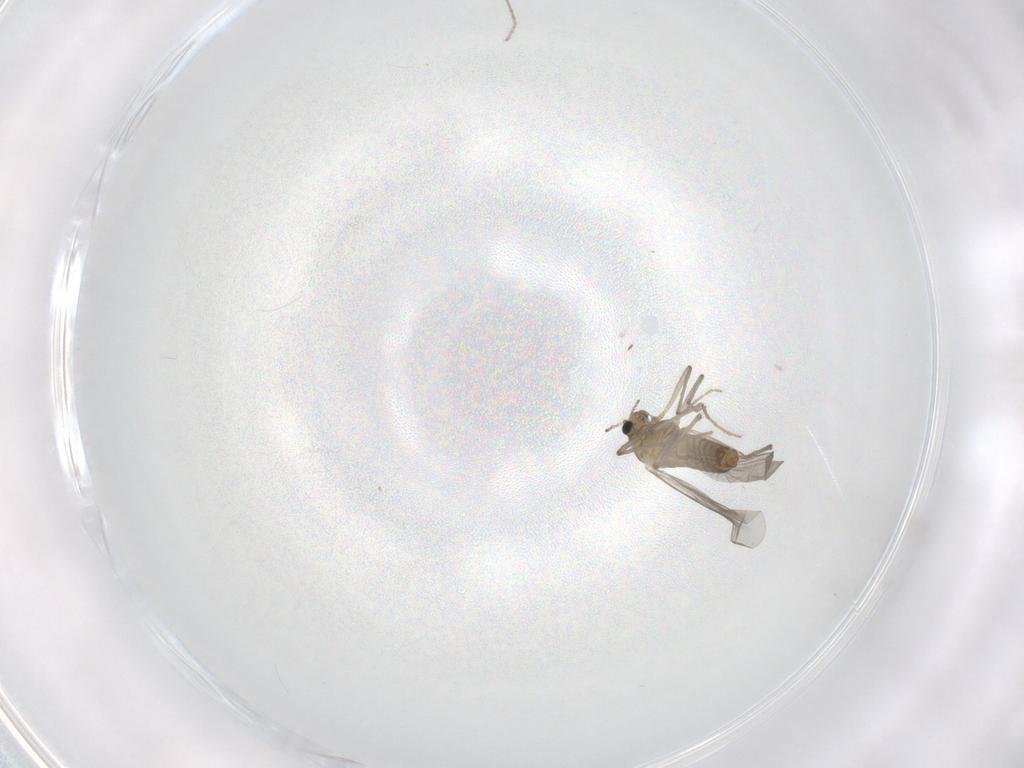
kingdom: Animalia
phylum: Arthropoda
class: Insecta
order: Diptera
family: Chironomidae
